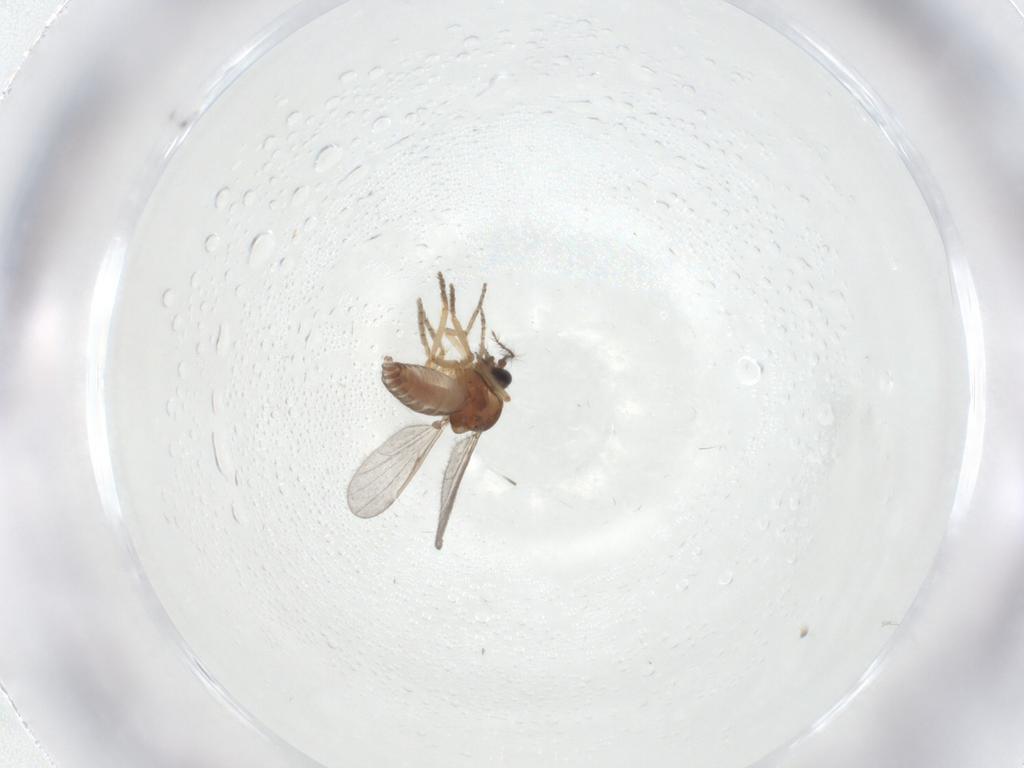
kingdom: Animalia
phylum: Arthropoda
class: Insecta
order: Diptera
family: Ceratopogonidae
